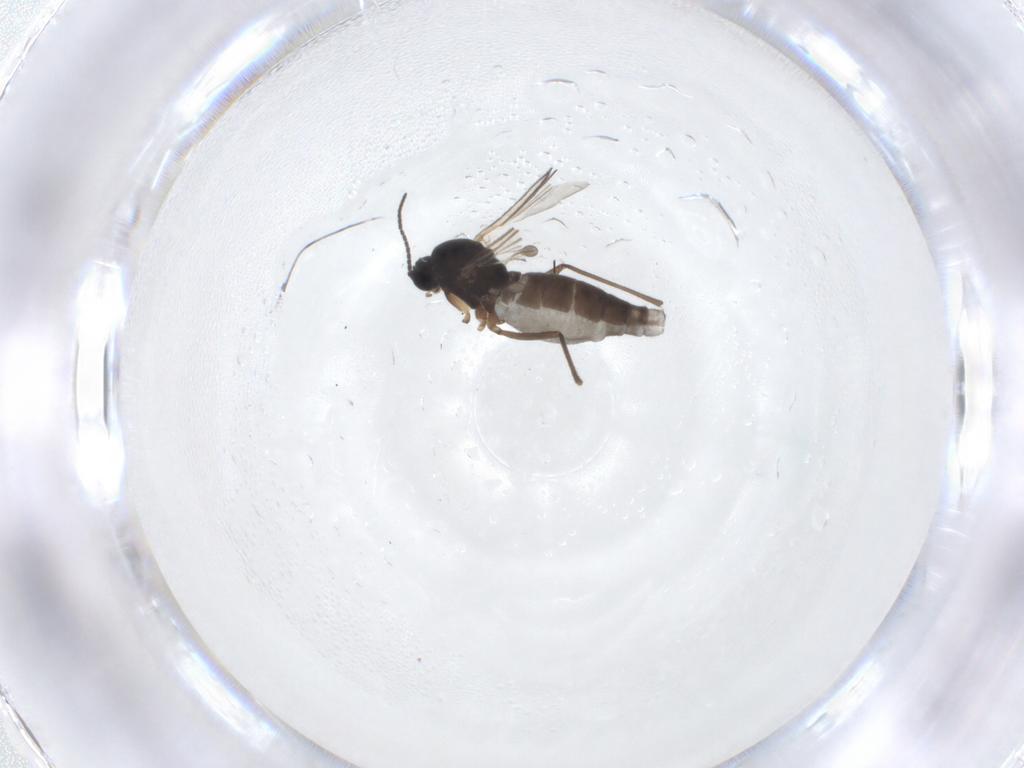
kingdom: Animalia
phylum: Arthropoda
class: Insecta
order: Diptera
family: Sciaridae
